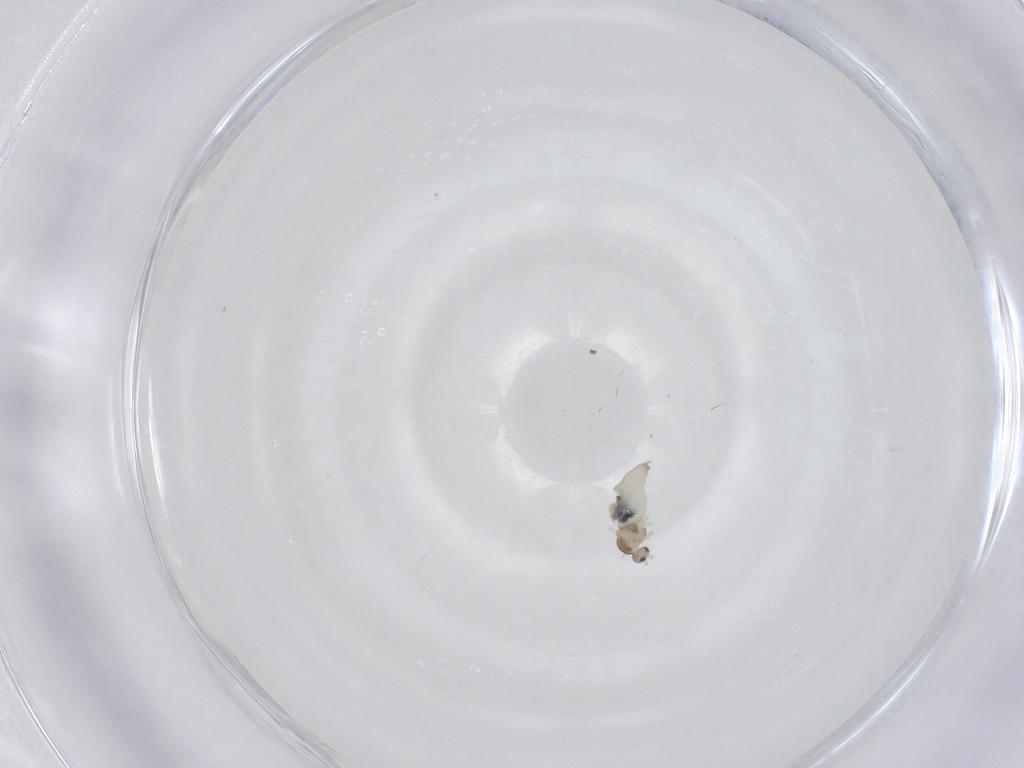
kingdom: Animalia
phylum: Arthropoda
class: Insecta
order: Diptera
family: Cecidomyiidae
